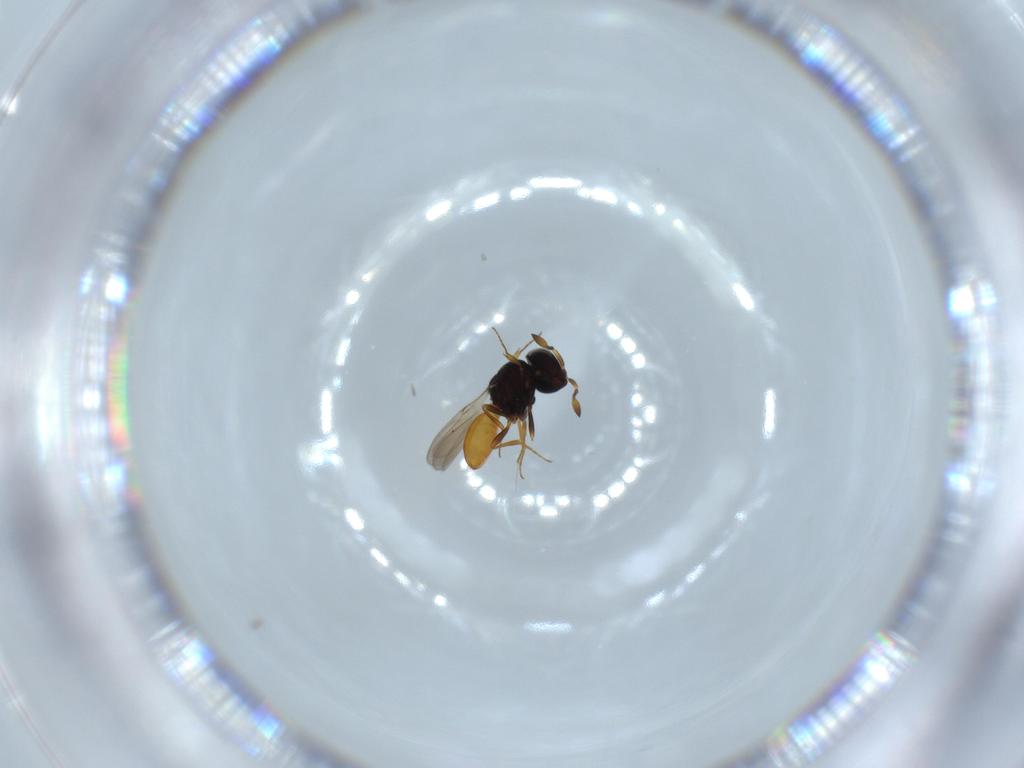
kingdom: Animalia
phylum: Arthropoda
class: Insecta
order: Hymenoptera
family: Scelionidae
